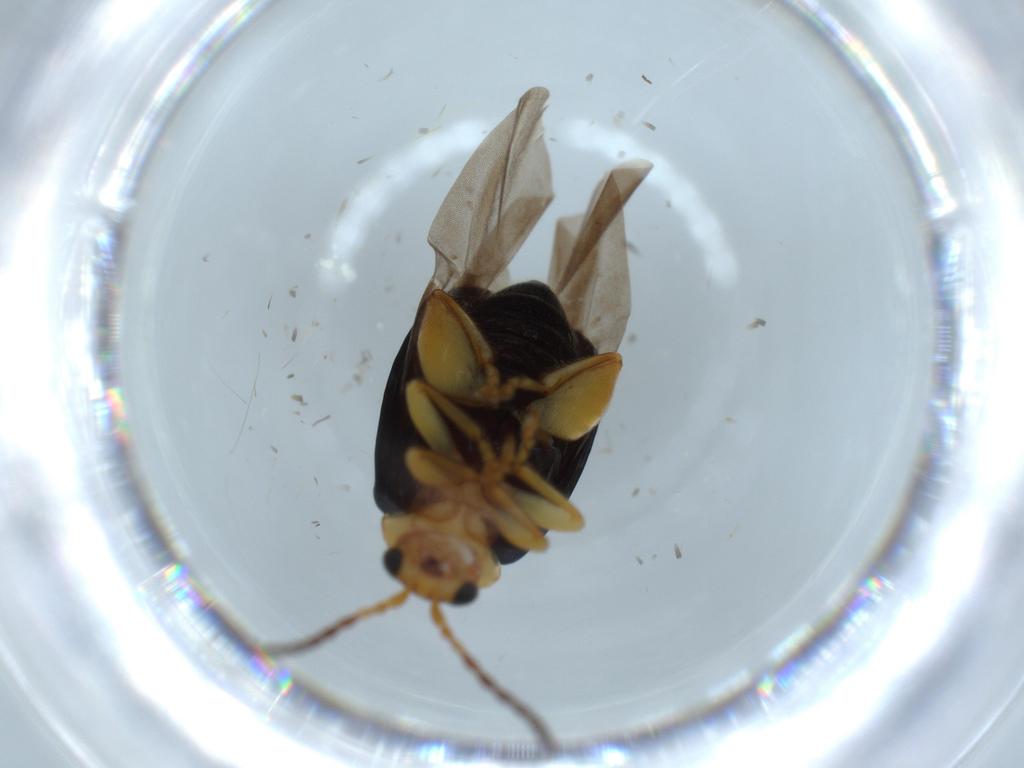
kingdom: Animalia
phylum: Arthropoda
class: Insecta
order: Coleoptera
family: Chrysomelidae
